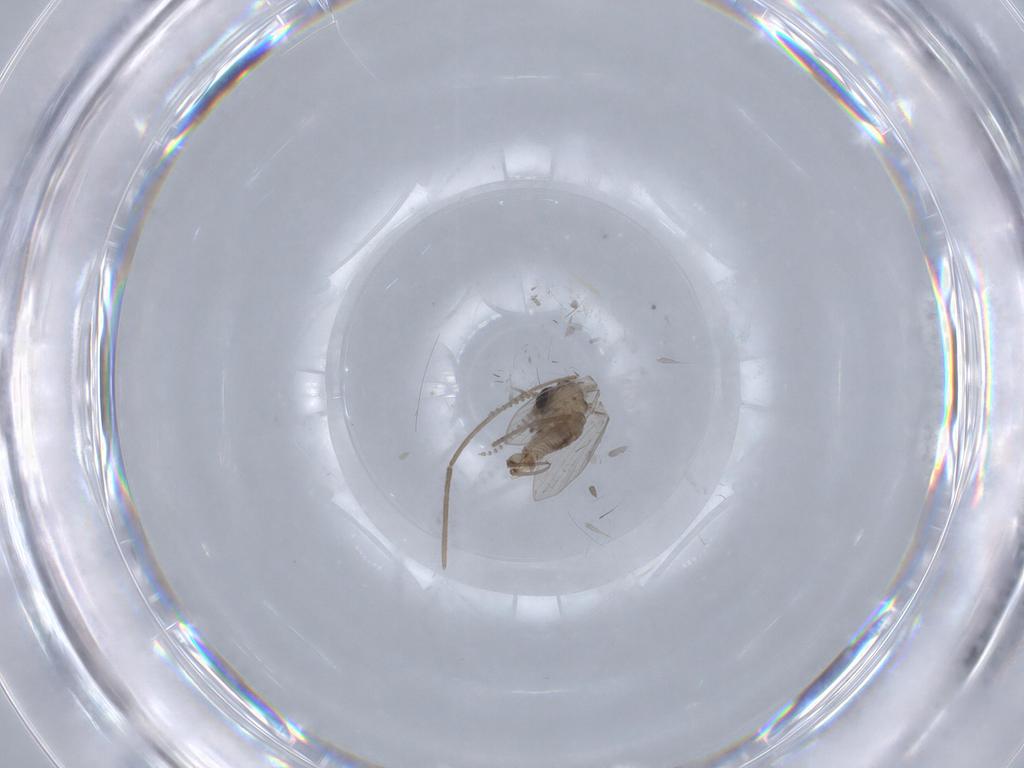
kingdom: Animalia
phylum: Arthropoda
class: Insecta
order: Diptera
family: Psychodidae
